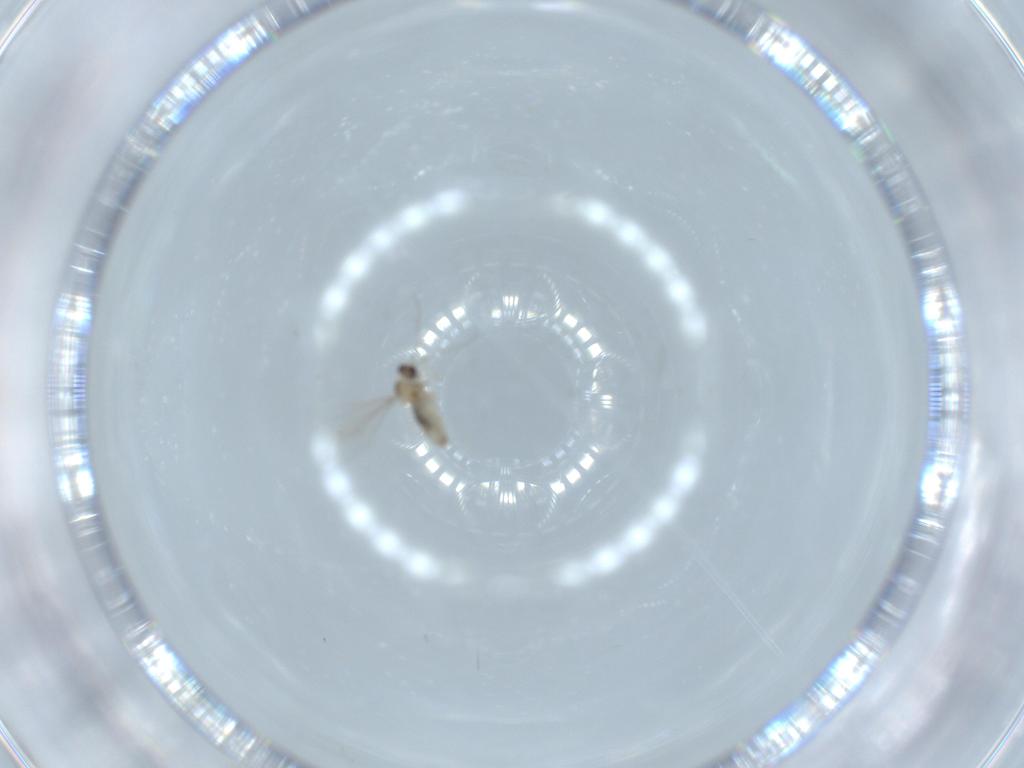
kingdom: Animalia
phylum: Arthropoda
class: Insecta
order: Diptera
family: Cecidomyiidae
